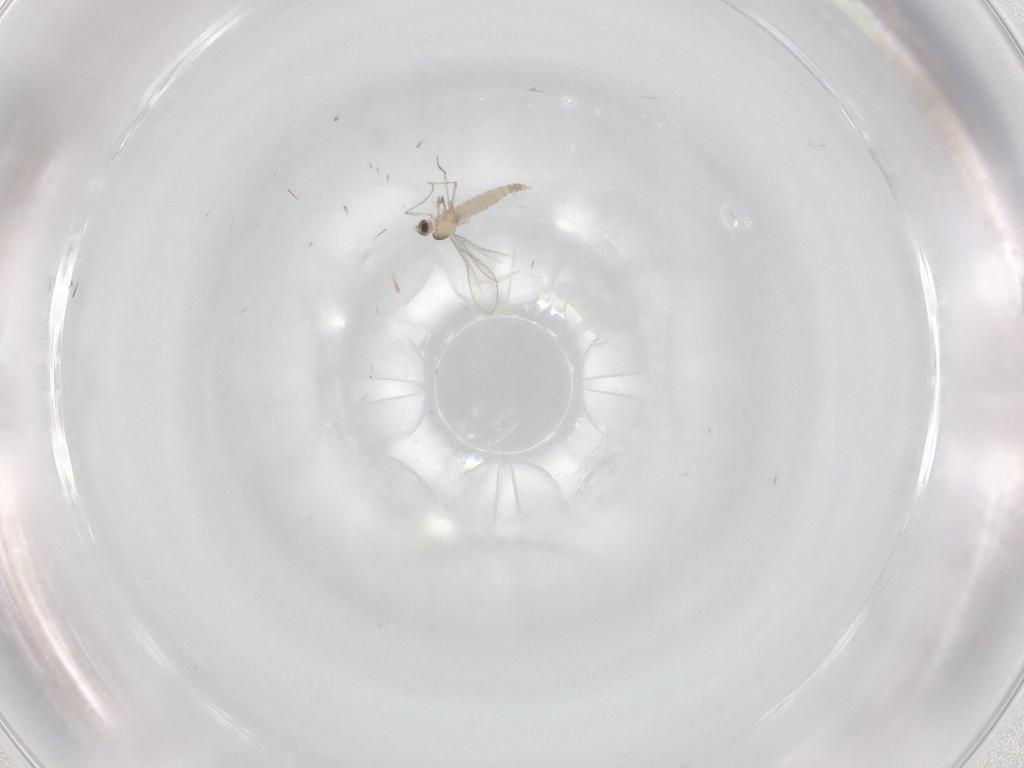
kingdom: Animalia
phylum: Arthropoda
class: Insecta
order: Diptera
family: Cecidomyiidae
